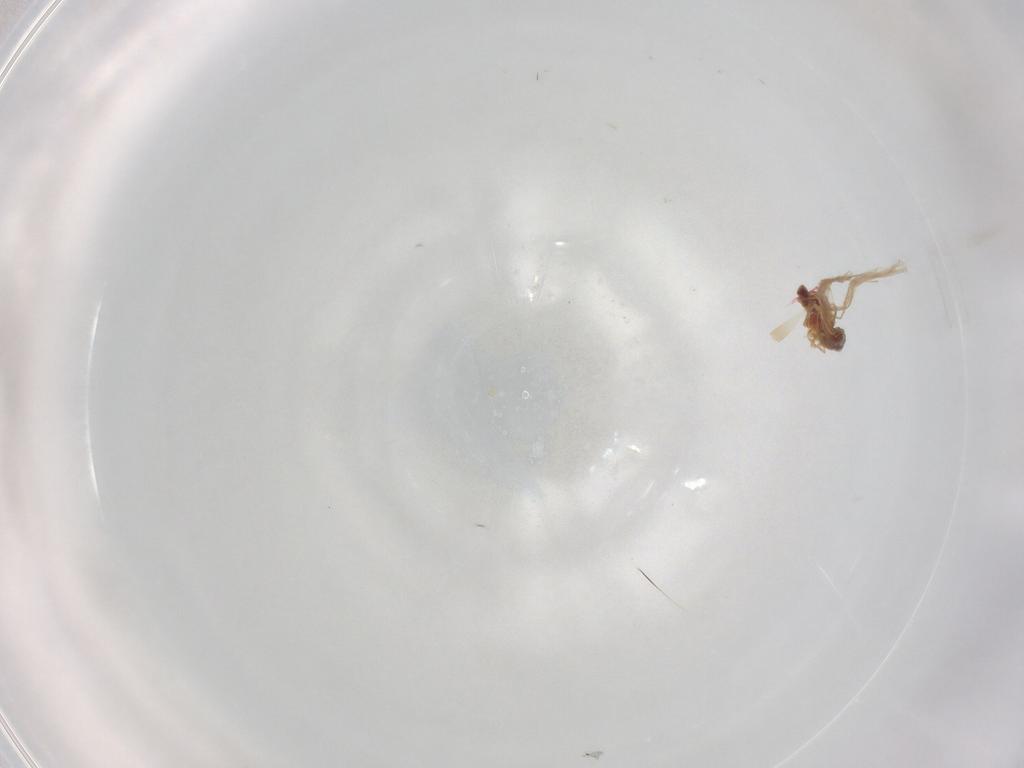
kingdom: Animalia
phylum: Arthropoda
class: Insecta
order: Diptera
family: Chironomidae
